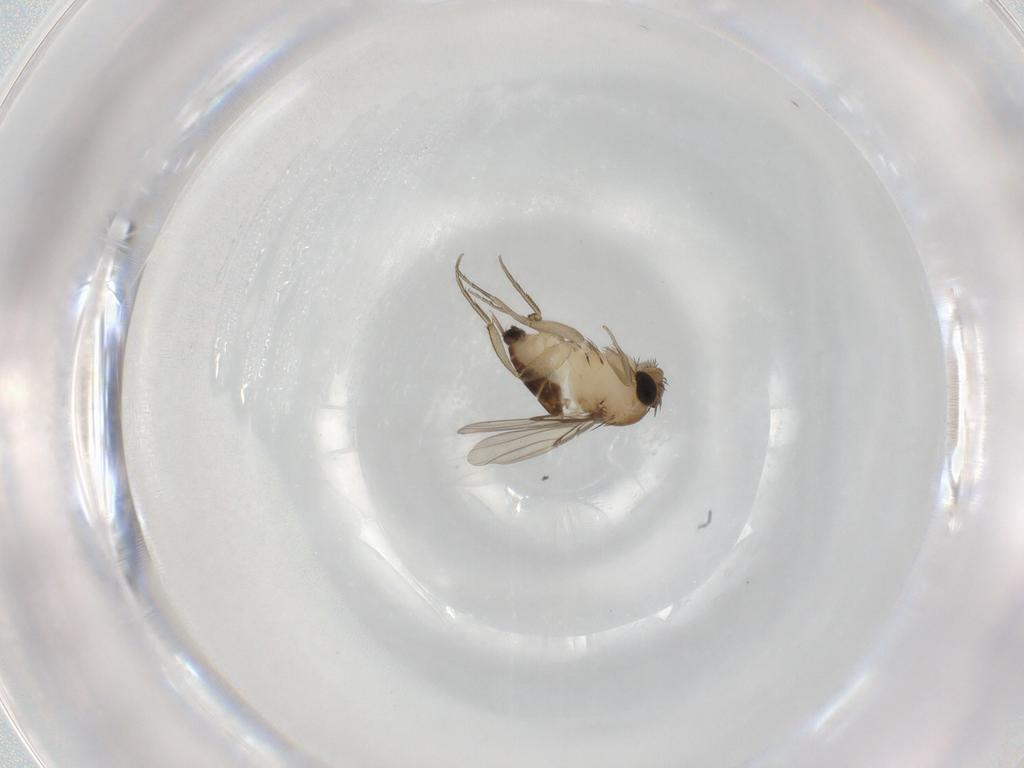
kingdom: Animalia
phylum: Arthropoda
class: Insecta
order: Diptera
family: Phoridae
